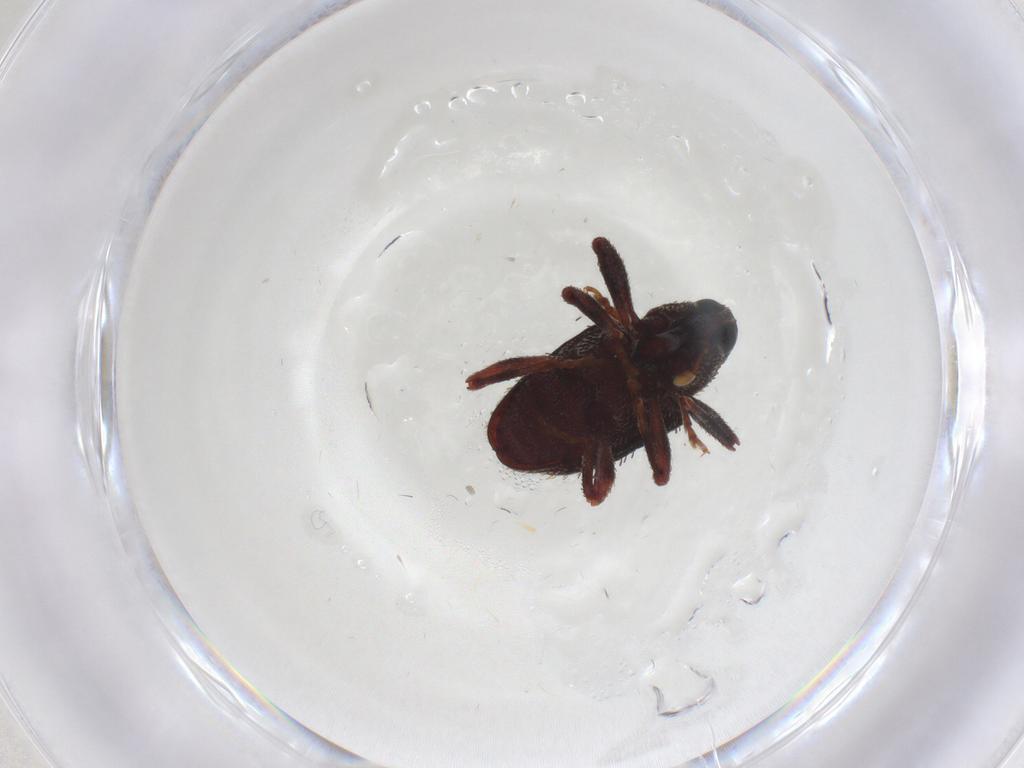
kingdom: Animalia
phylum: Arthropoda
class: Insecta
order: Coleoptera
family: Curculionidae
